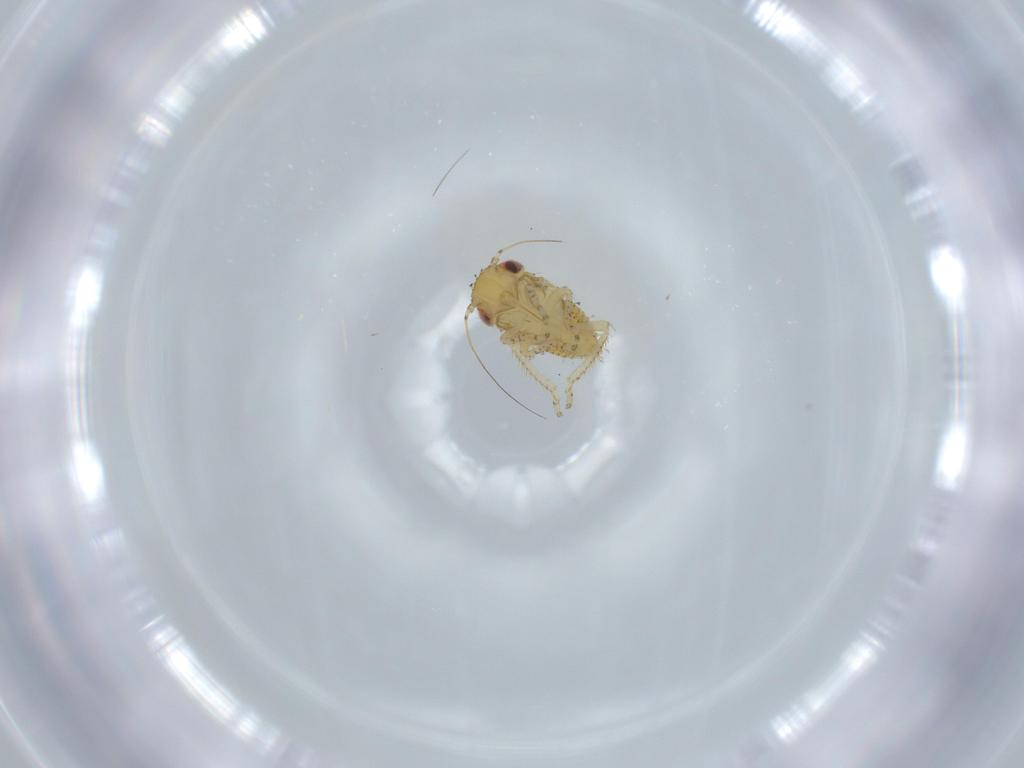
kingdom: Animalia
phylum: Arthropoda
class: Insecta
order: Hemiptera
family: Cicadellidae
